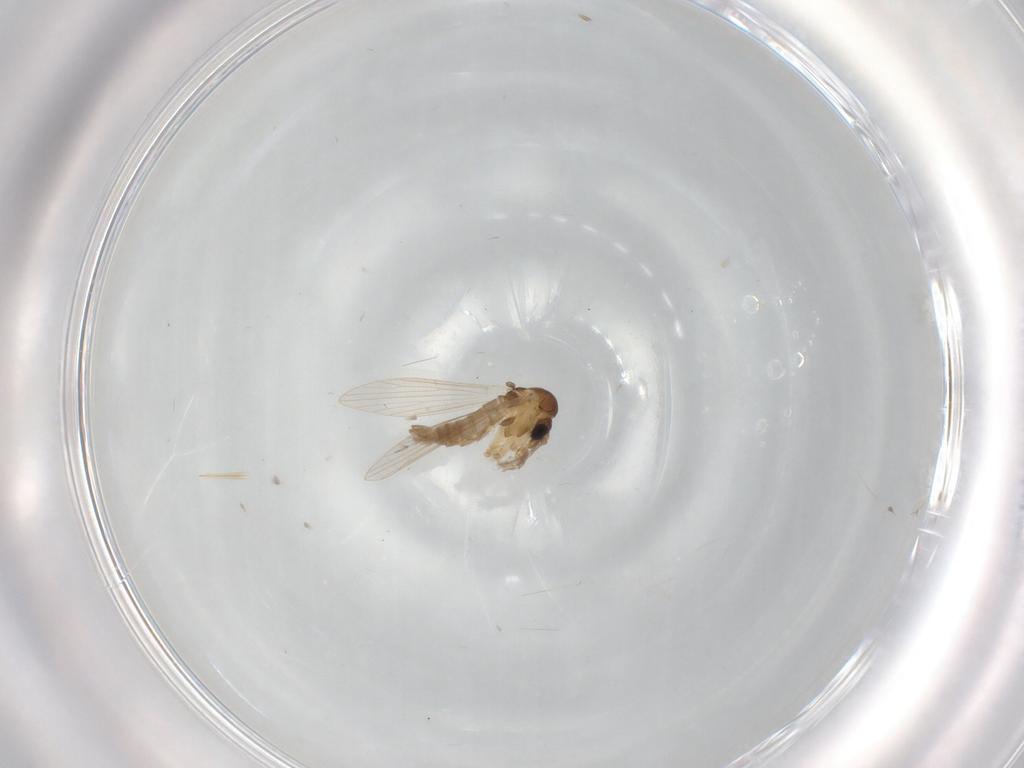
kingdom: Animalia
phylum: Arthropoda
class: Insecta
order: Diptera
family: Psychodidae
